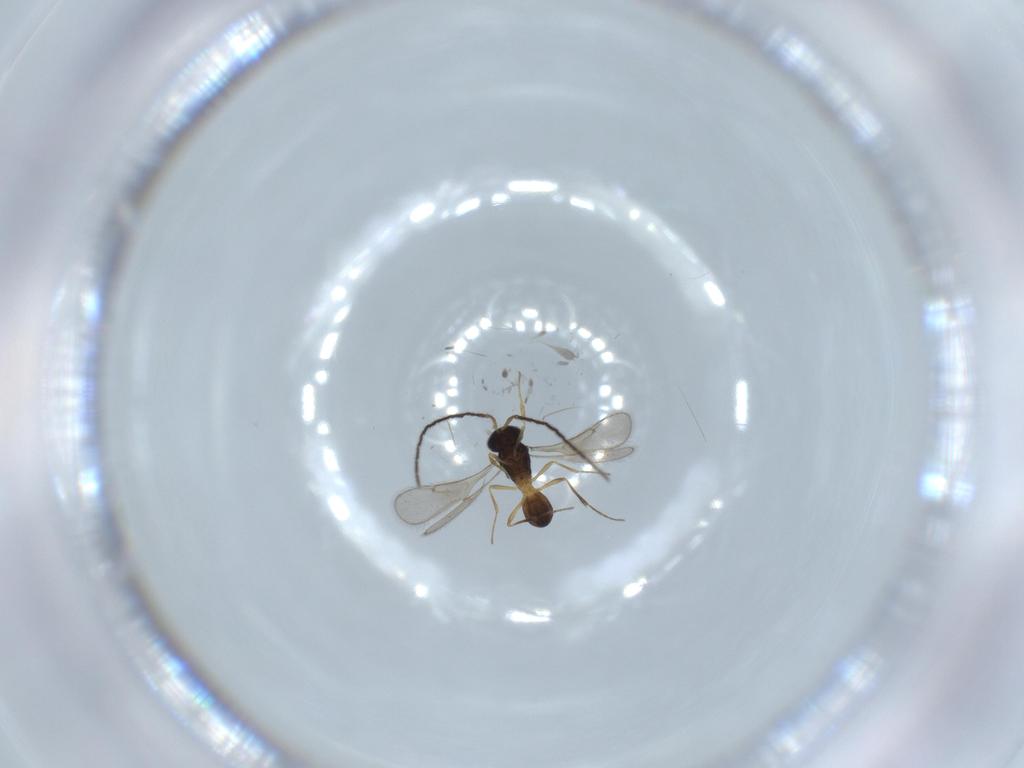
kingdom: Animalia
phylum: Arthropoda
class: Insecta
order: Hymenoptera
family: Scelionidae
